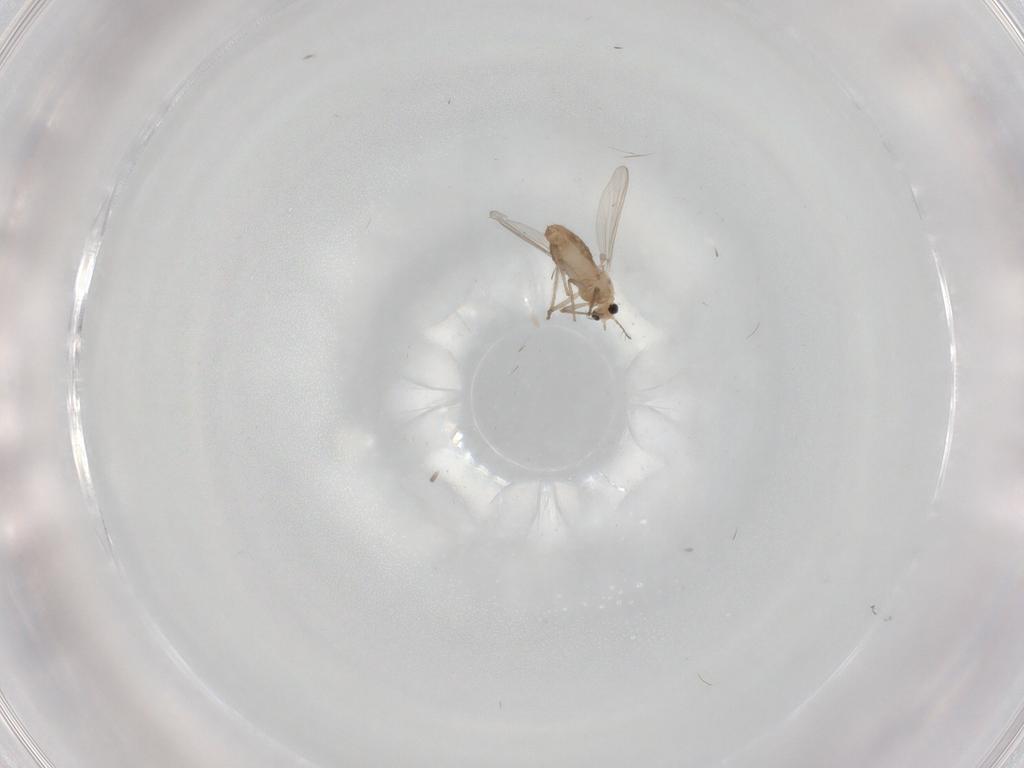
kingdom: Animalia
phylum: Arthropoda
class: Insecta
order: Diptera
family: Chironomidae
